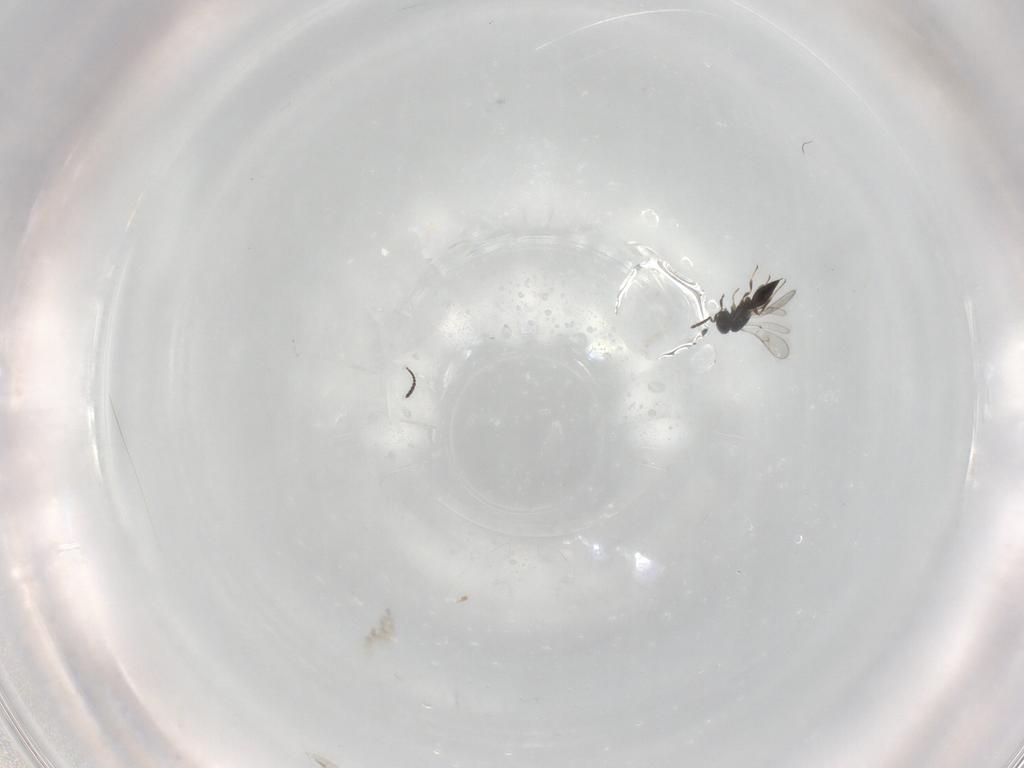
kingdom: Animalia
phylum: Arthropoda
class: Insecta
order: Hymenoptera
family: Scelionidae
